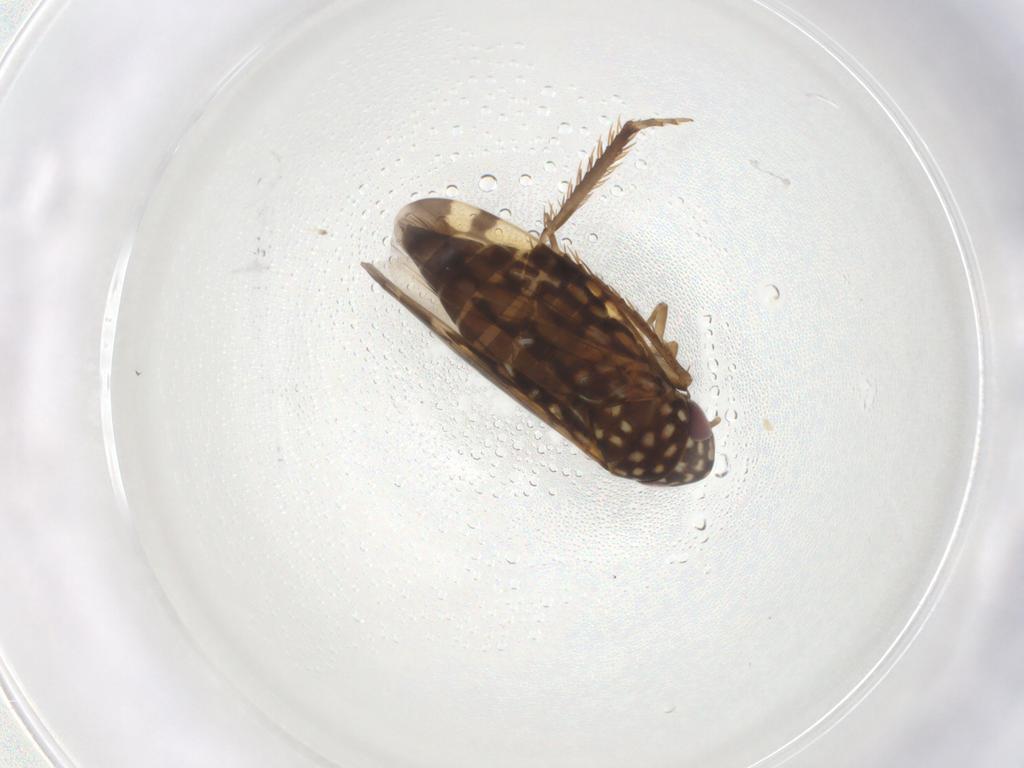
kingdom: Animalia
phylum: Arthropoda
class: Insecta
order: Hemiptera
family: Cicadellidae
